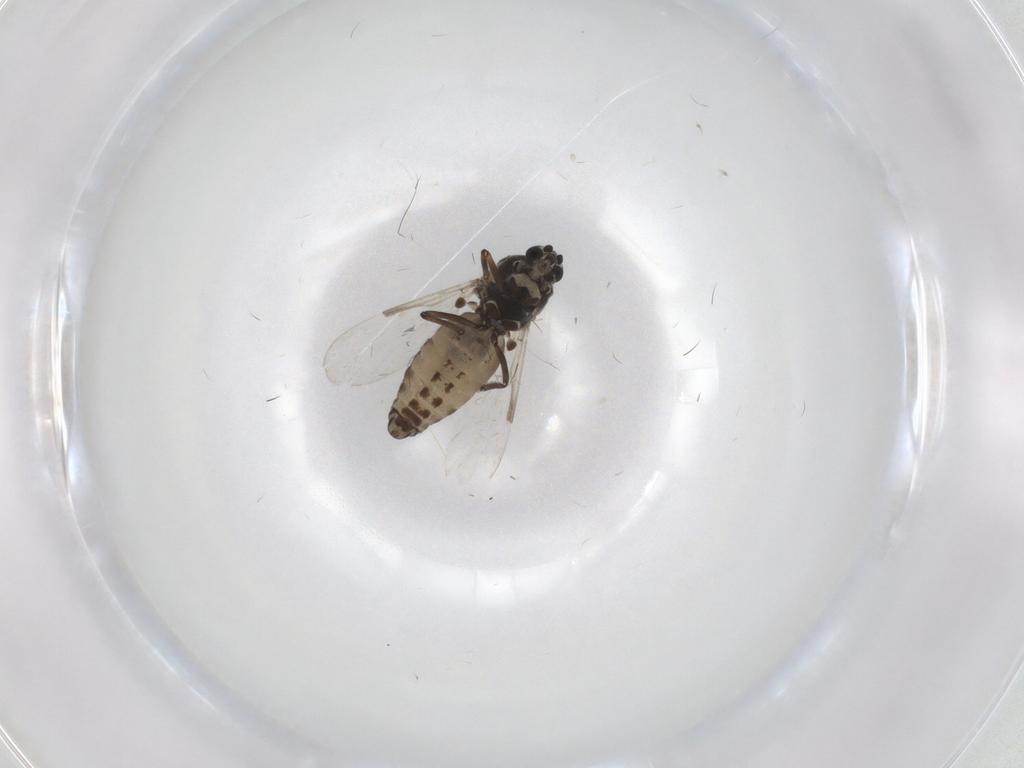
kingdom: Animalia
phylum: Arthropoda
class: Insecta
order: Diptera
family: Ceratopogonidae
